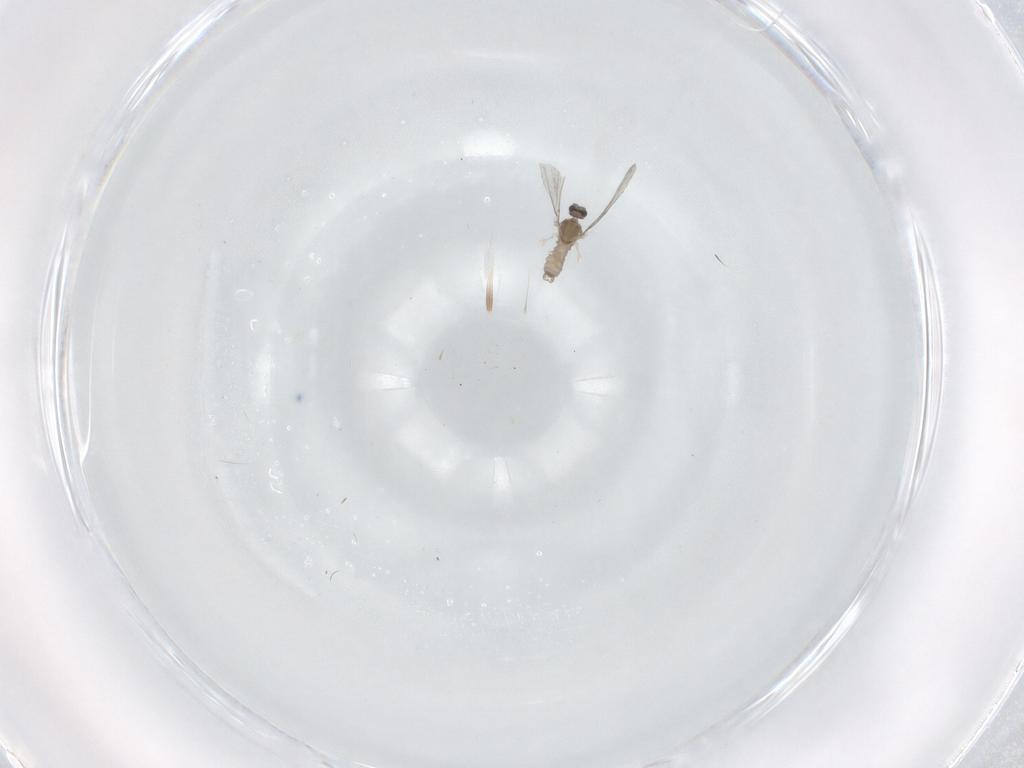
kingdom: Animalia
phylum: Arthropoda
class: Insecta
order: Diptera
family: Cecidomyiidae
